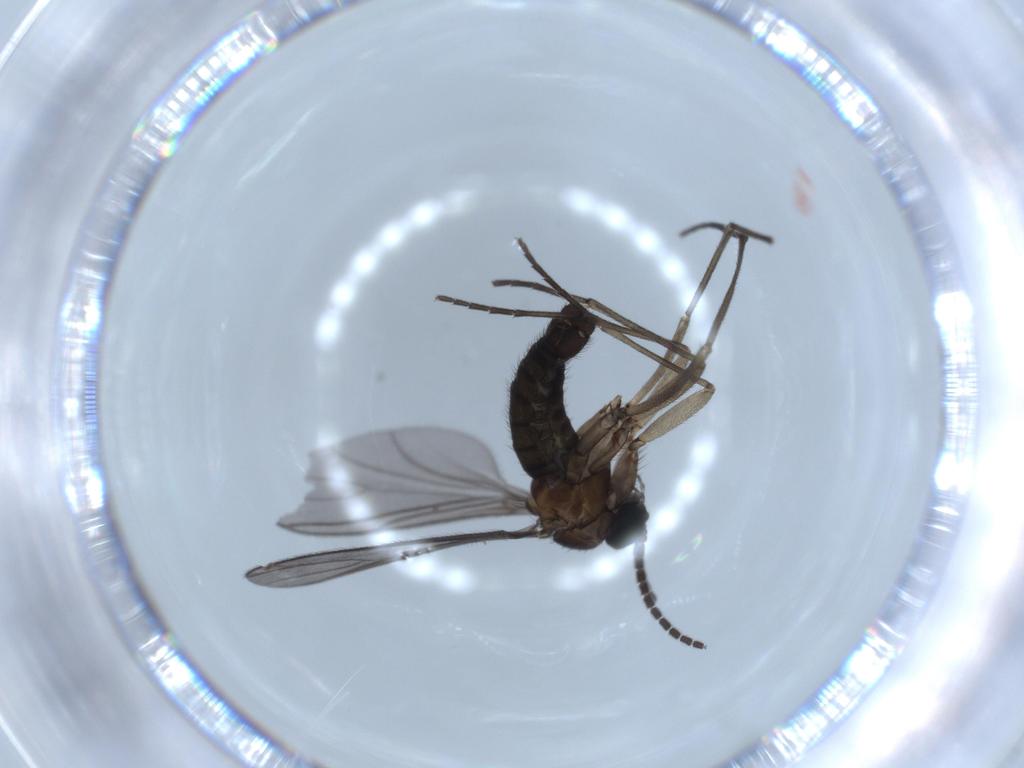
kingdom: Animalia
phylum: Arthropoda
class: Insecta
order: Diptera
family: Sciaridae
